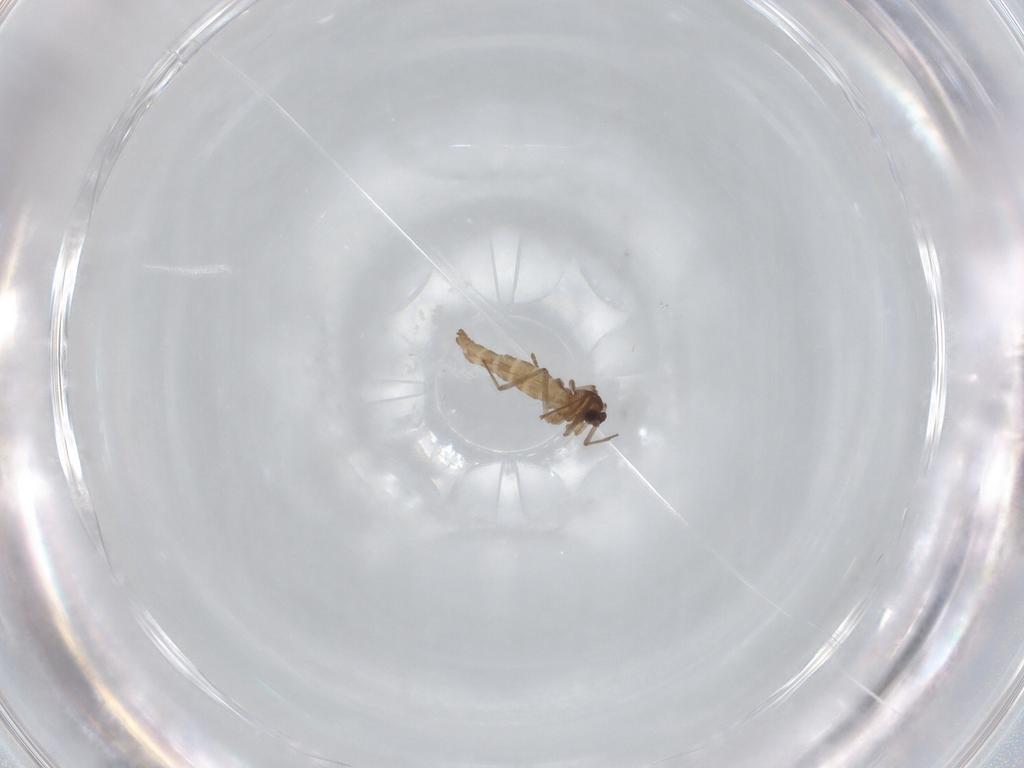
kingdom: Animalia
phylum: Arthropoda
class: Insecta
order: Diptera
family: Cecidomyiidae
